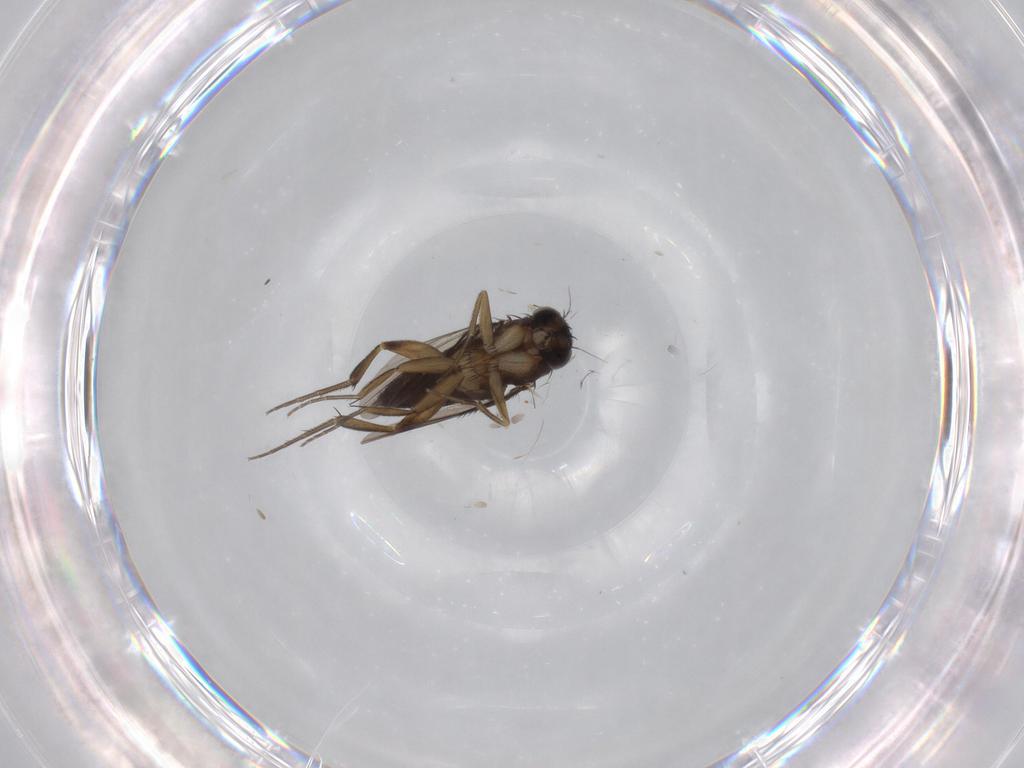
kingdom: Animalia
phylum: Arthropoda
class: Insecta
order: Diptera
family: Phoridae
